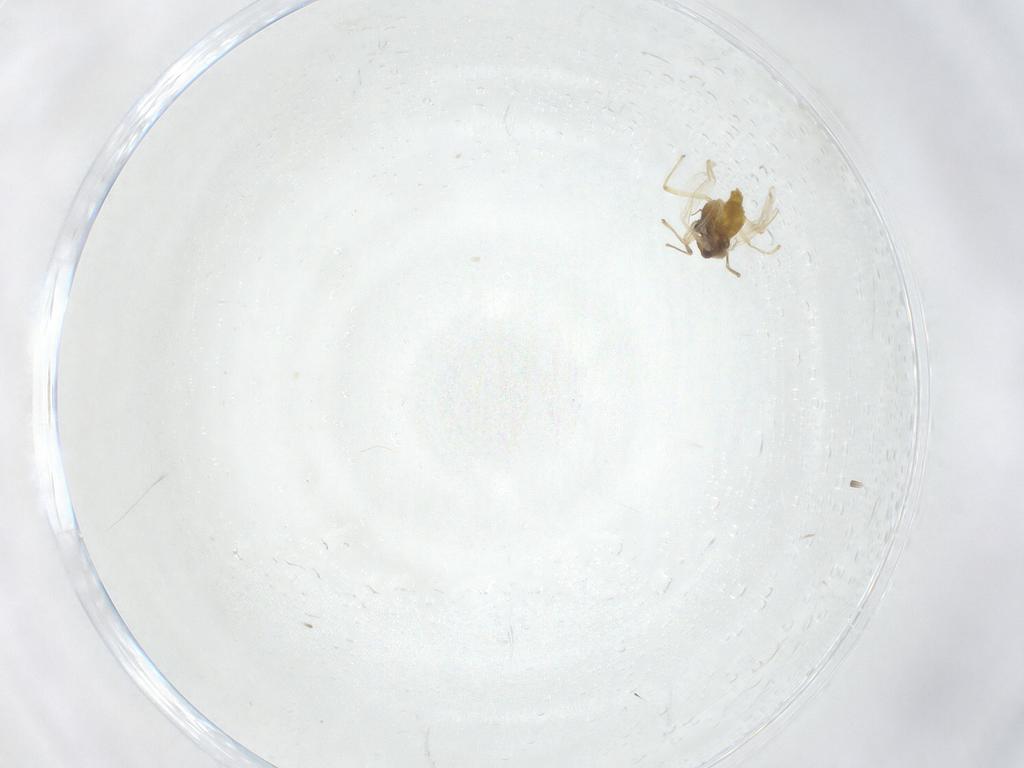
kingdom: Animalia
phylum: Arthropoda
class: Insecta
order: Diptera
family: Chironomidae
